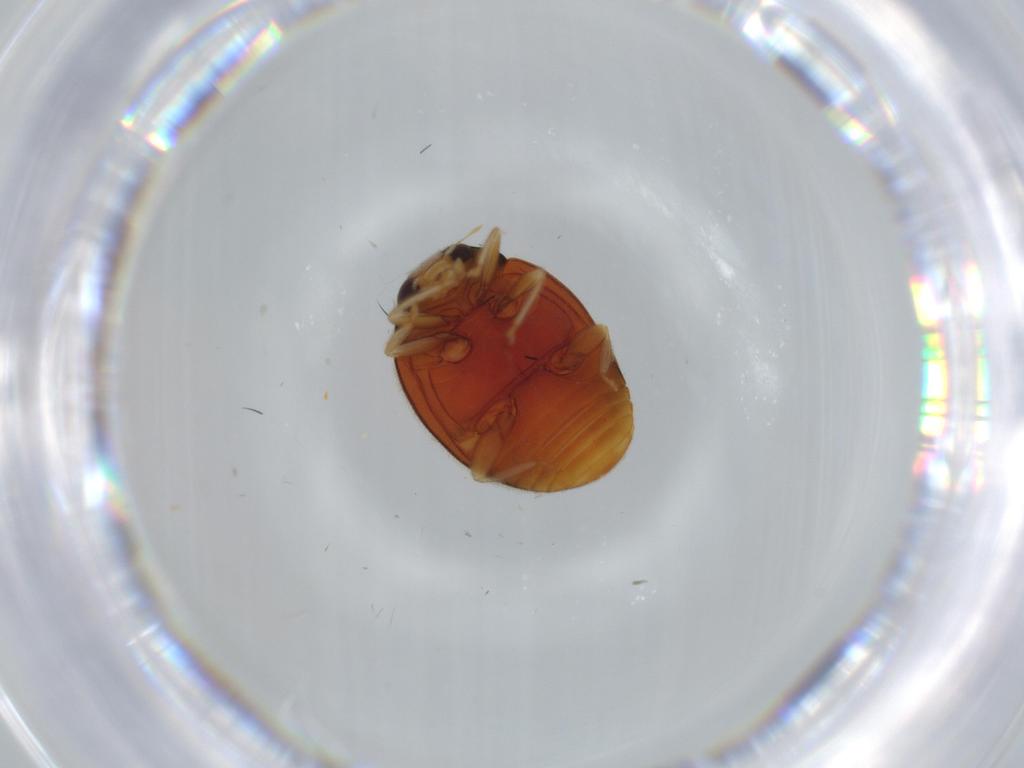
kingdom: Animalia
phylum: Arthropoda
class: Insecta
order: Coleoptera
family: Coccinellidae
